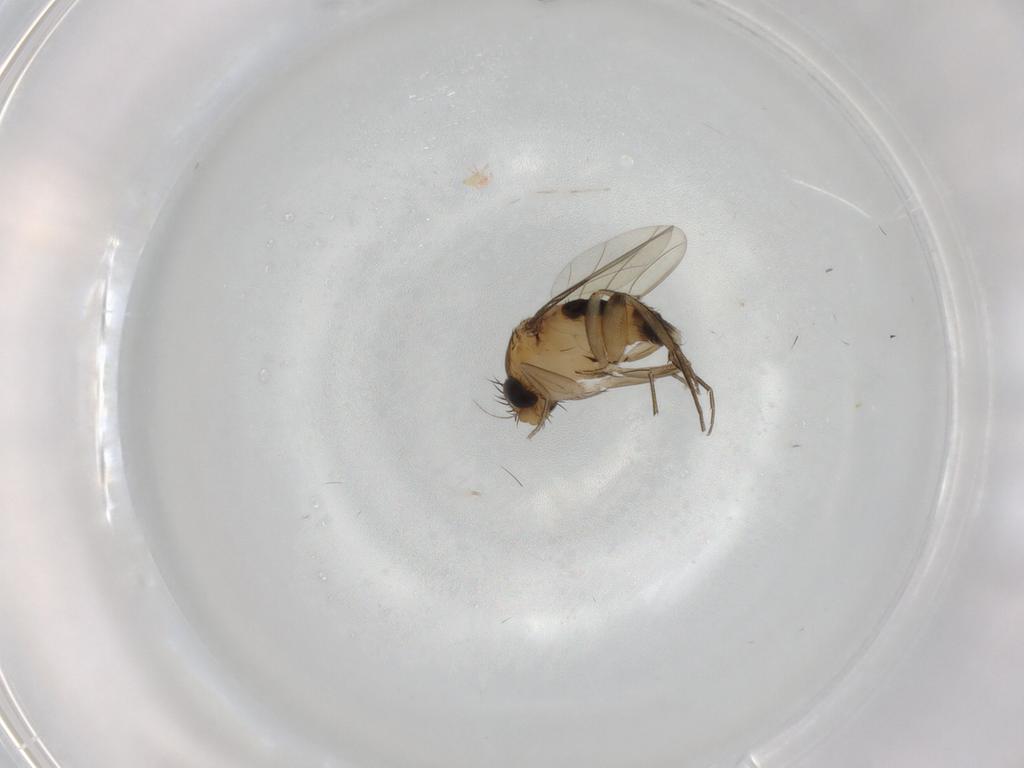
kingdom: Animalia
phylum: Arthropoda
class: Insecta
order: Diptera
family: Phoridae
